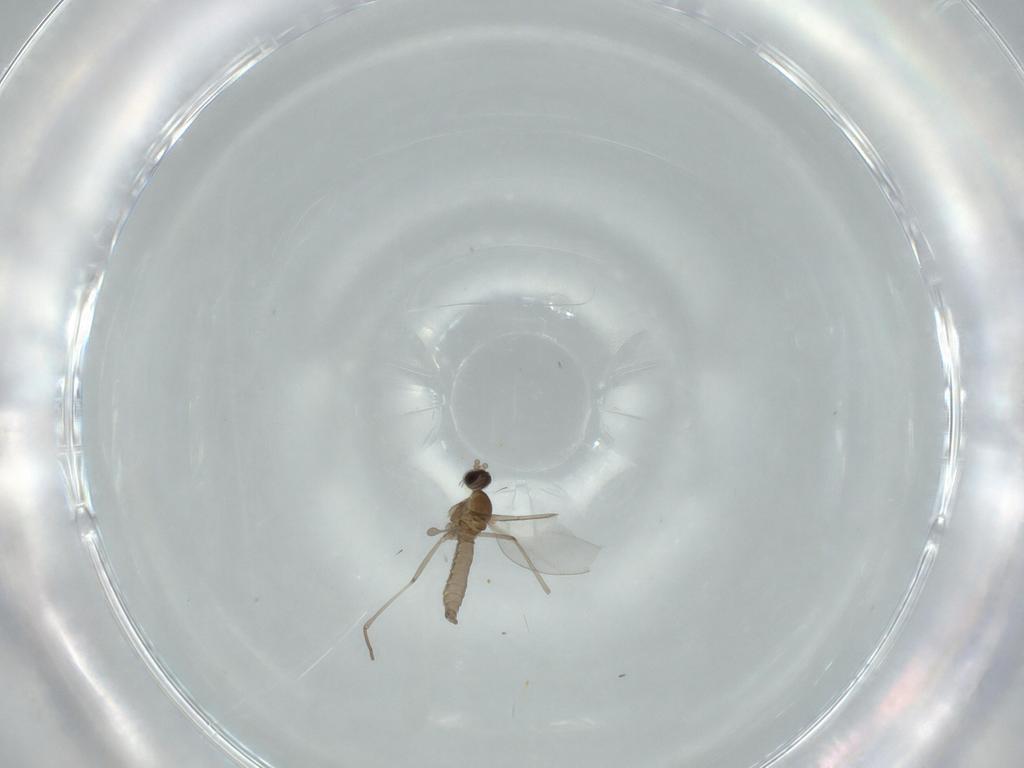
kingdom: Animalia
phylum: Arthropoda
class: Insecta
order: Diptera
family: Cecidomyiidae
